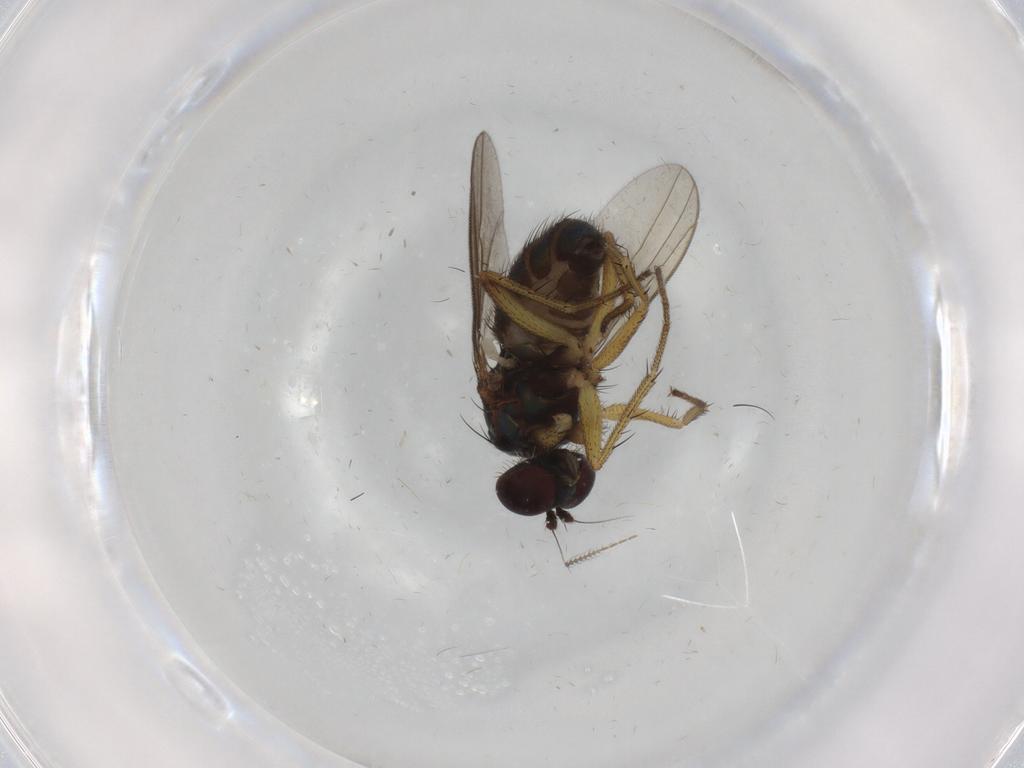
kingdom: Animalia
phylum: Arthropoda
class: Insecta
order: Diptera
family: Dolichopodidae
